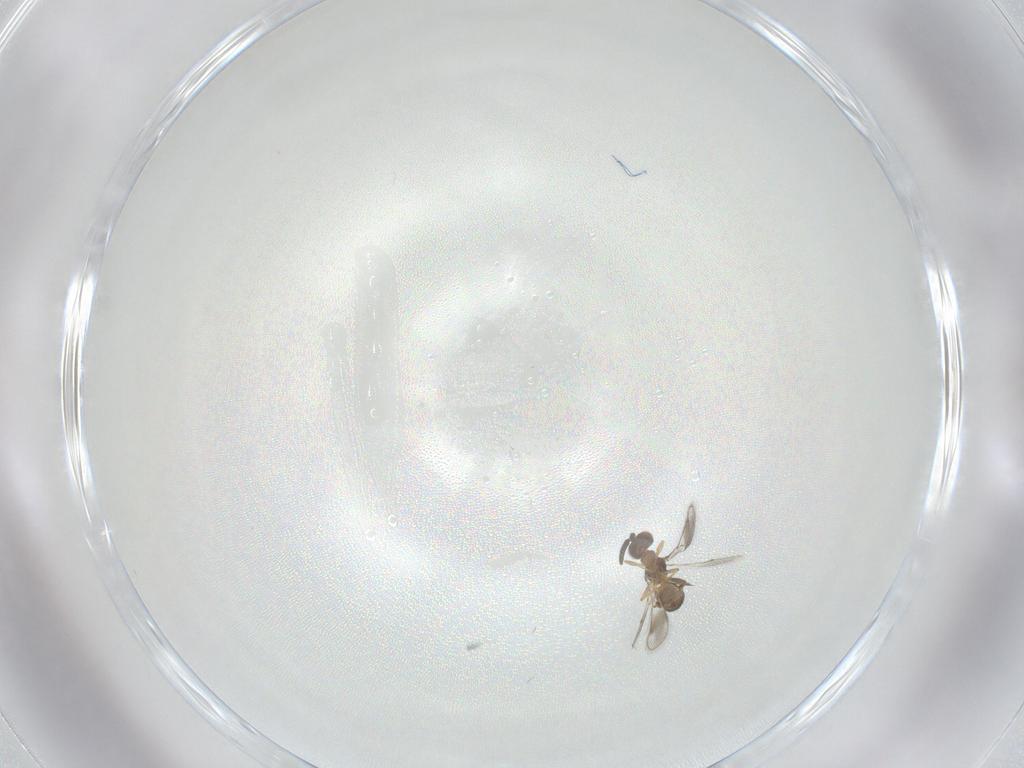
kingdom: Animalia
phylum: Arthropoda
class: Insecta
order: Hymenoptera
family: Pteromalidae
